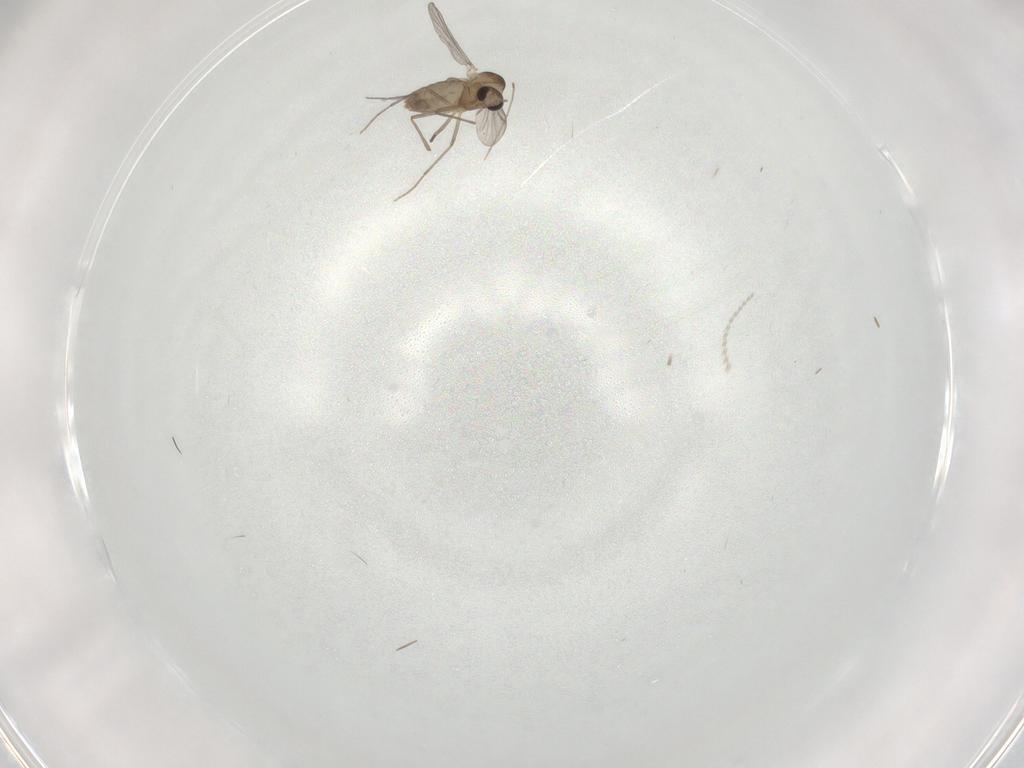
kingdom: Animalia
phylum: Arthropoda
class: Insecta
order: Diptera
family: Chironomidae
